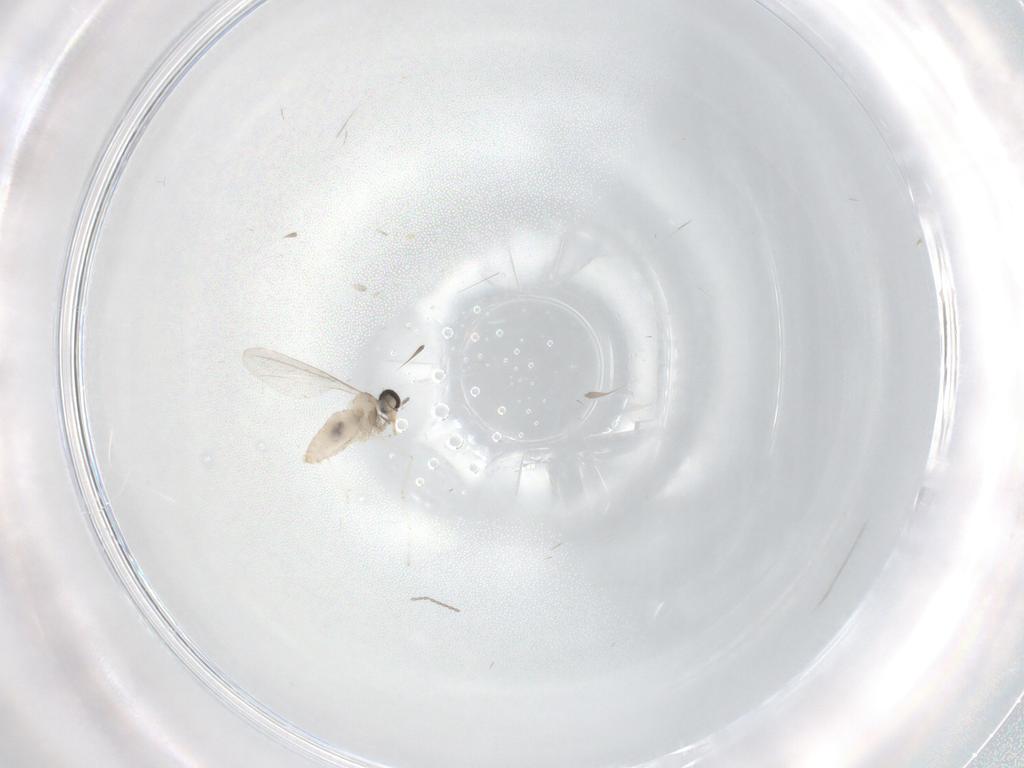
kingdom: Animalia
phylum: Arthropoda
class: Insecta
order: Diptera
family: Cecidomyiidae
